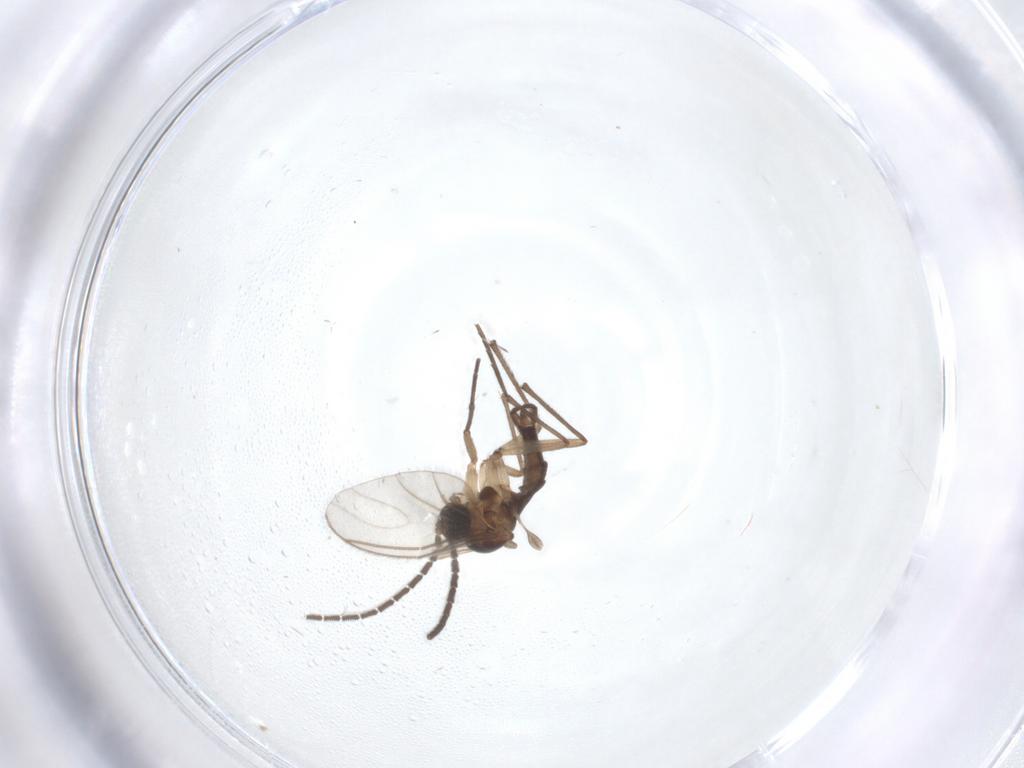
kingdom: Animalia
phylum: Arthropoda
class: Insecta
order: Diptera
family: Sciaridae
